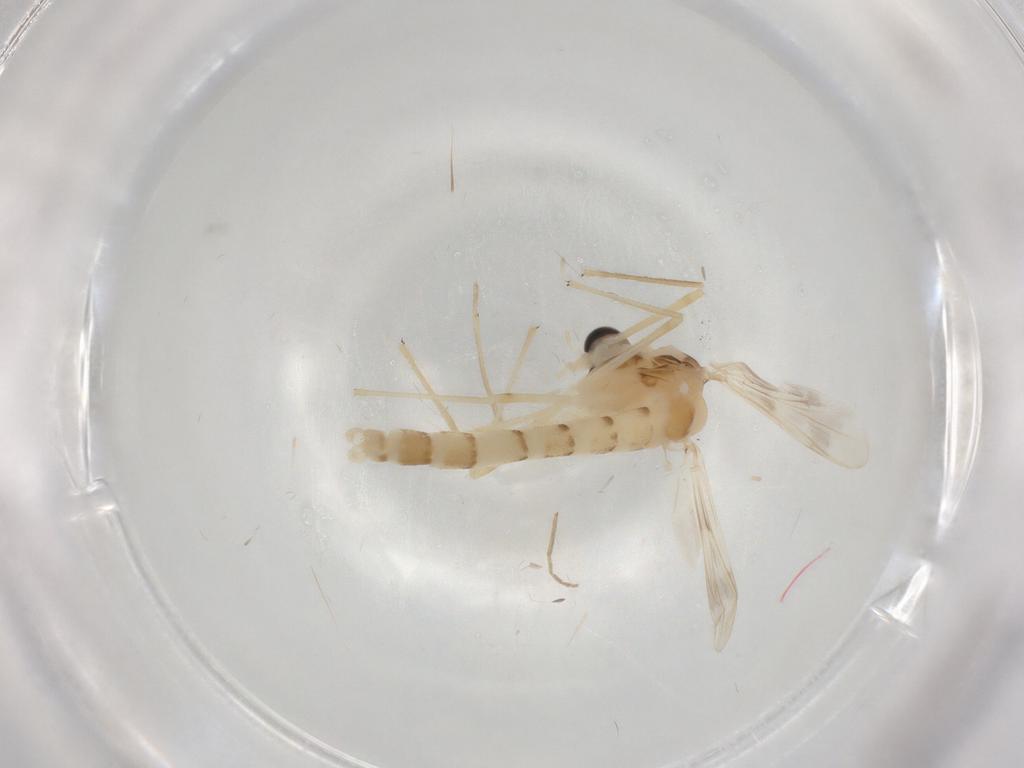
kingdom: Animalia
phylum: Arthropoda
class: Insecta
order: Diptera
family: Chironomidae
